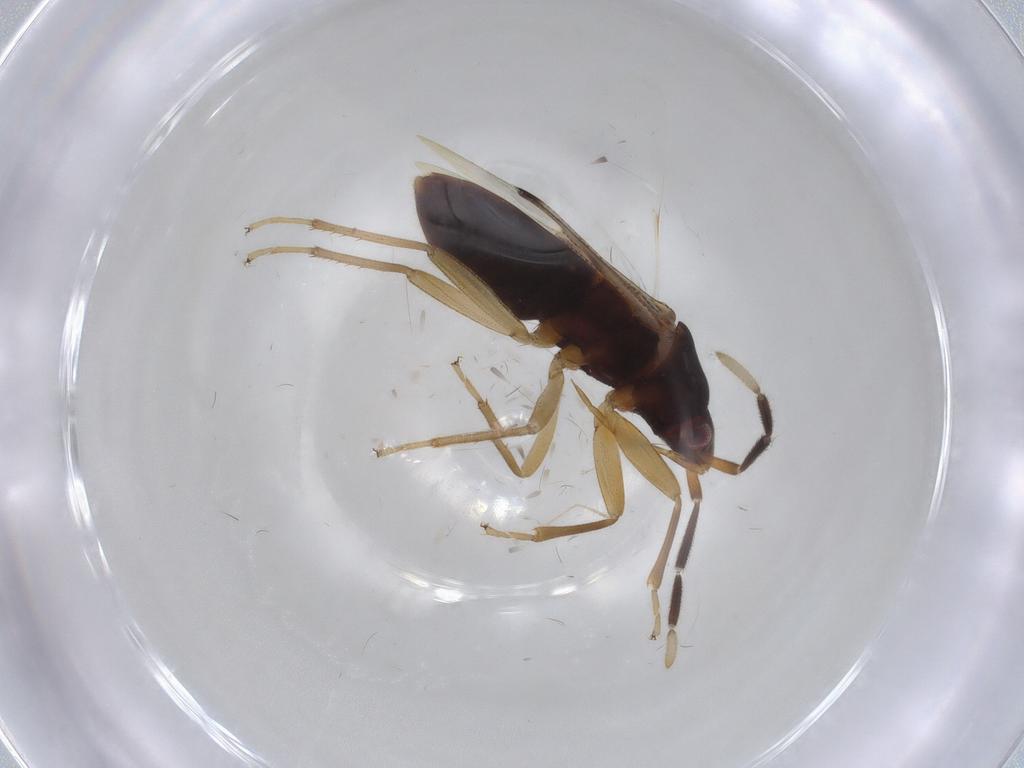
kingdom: Animalia
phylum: Arthropoda
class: Insecta
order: Hemiptera
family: Rhyparochromidae
